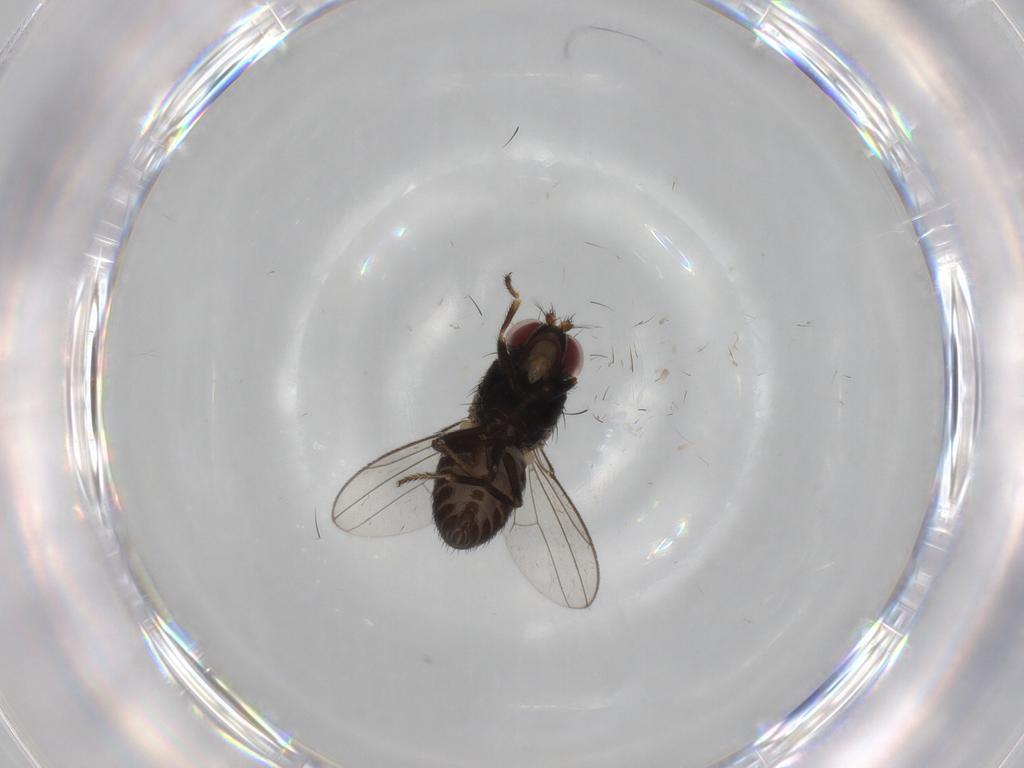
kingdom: Animalia
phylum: Arthropoda
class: Insecta
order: Diptera
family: Ephydridae
